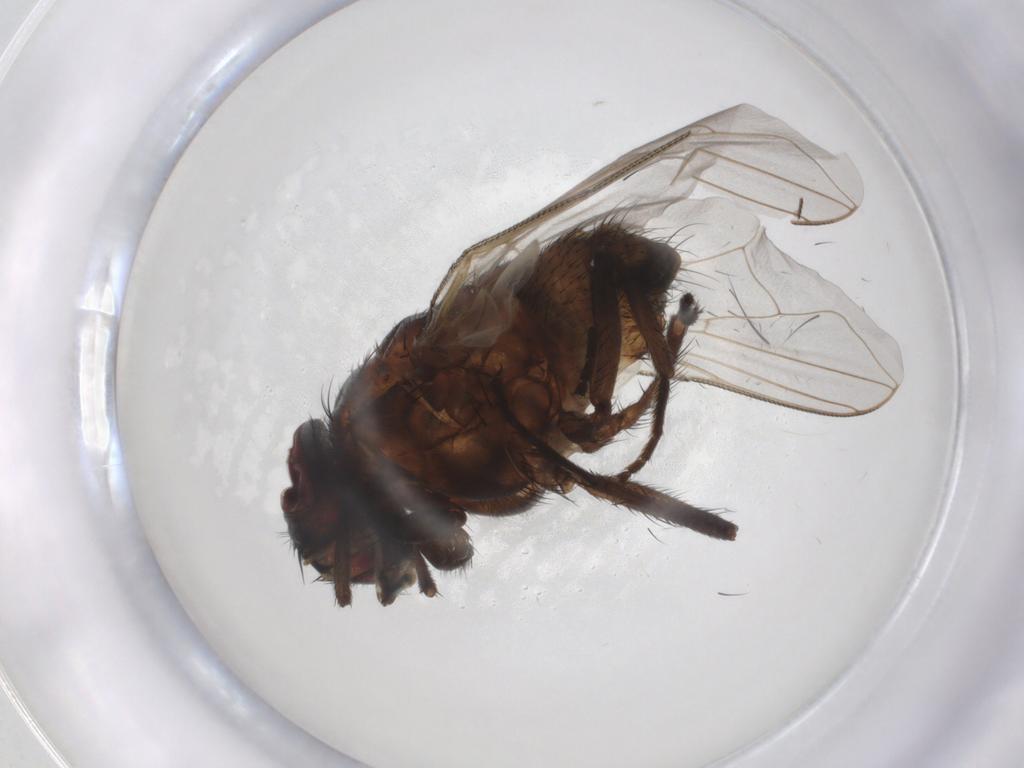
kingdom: Animalia
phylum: Arthropoda
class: Insecta
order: Diptera
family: Muscidae
